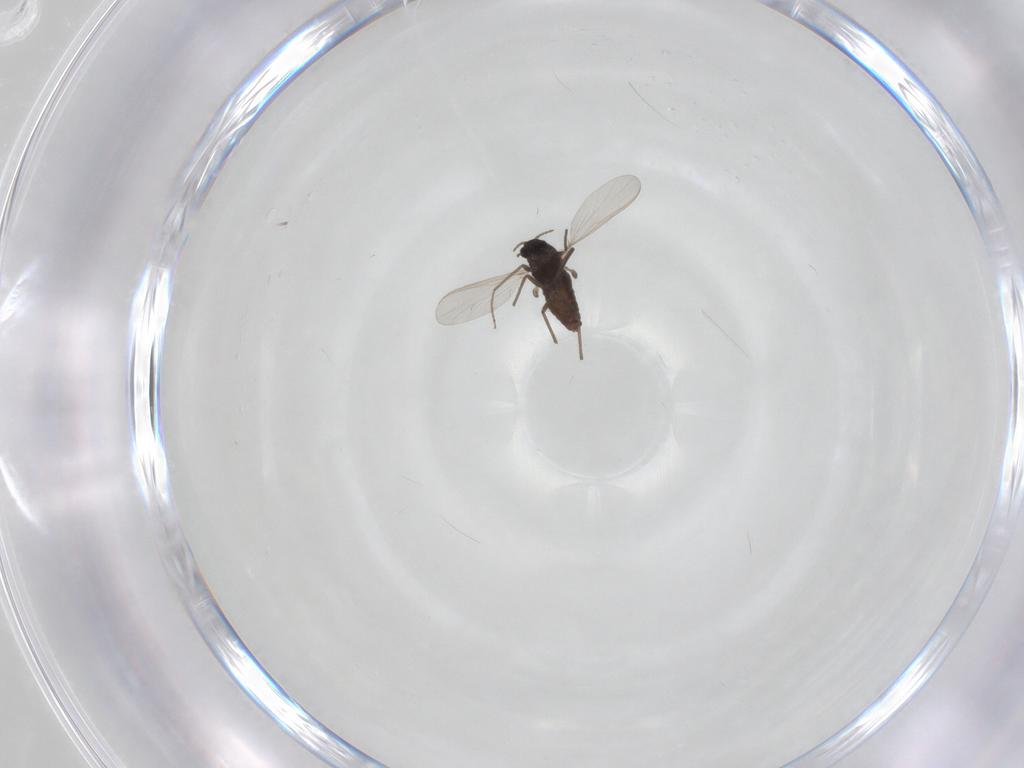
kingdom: Animalia
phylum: Arthropoda
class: Insecta
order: Diptera
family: Chironomidae
